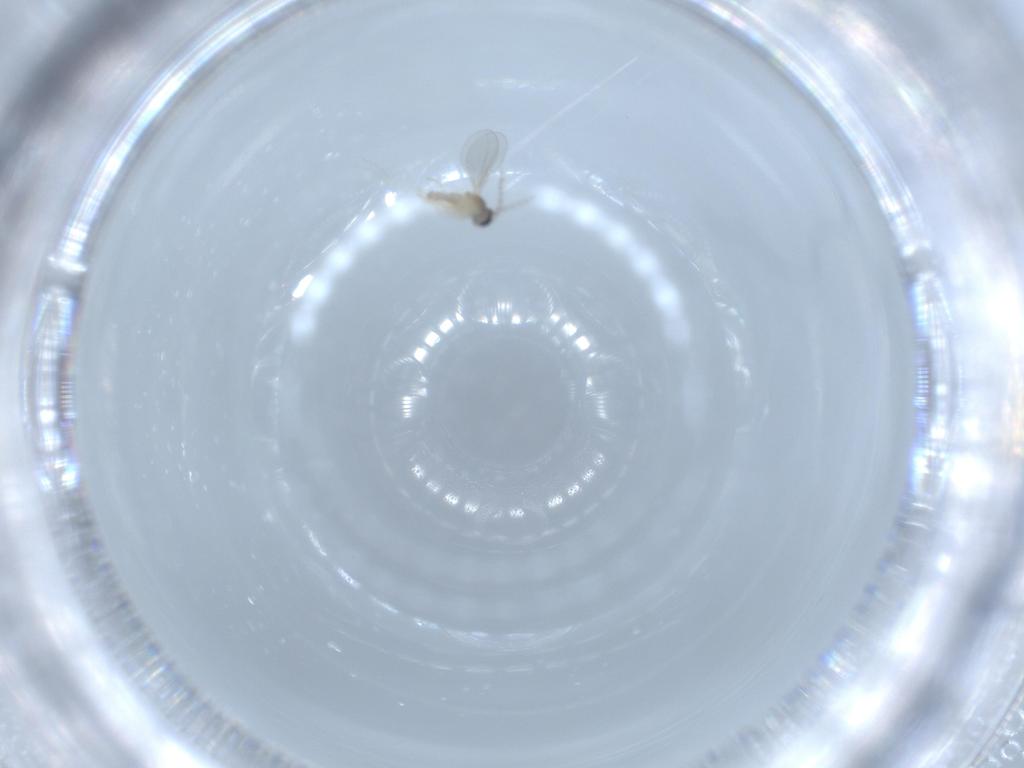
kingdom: Animalia
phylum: Arthropoda
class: Insecta
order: Diptera
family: Cecidomyiidae
